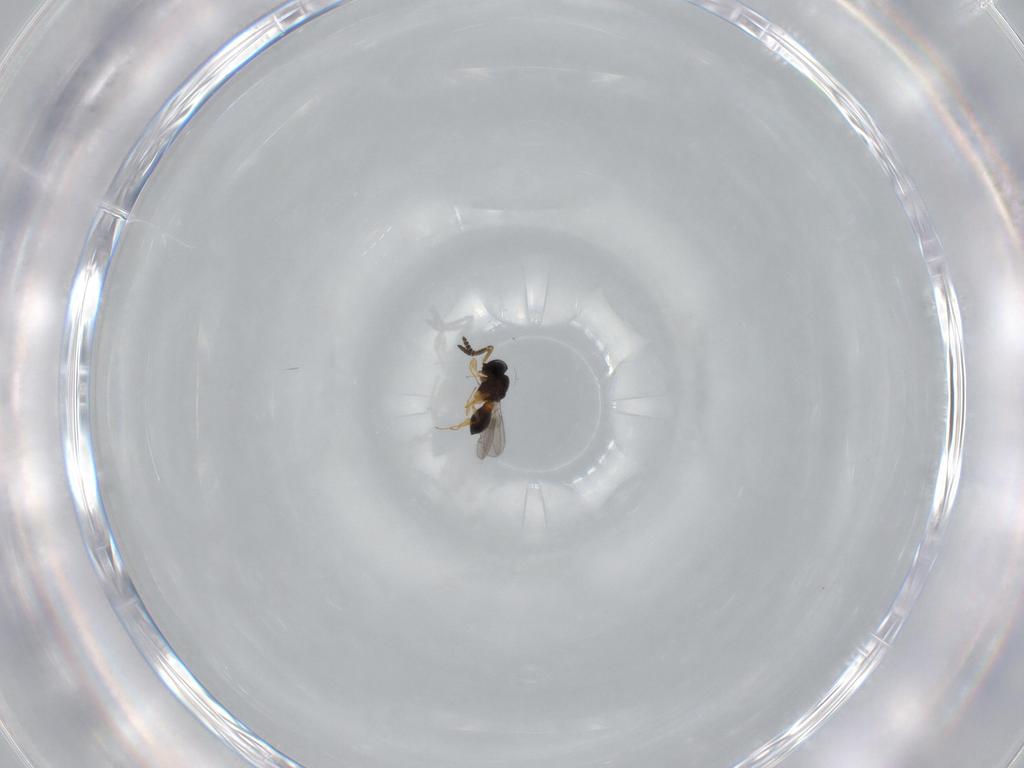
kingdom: Animalia
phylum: Arthropoda
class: Insecta
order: Hymenoptera
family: Scelionidae
